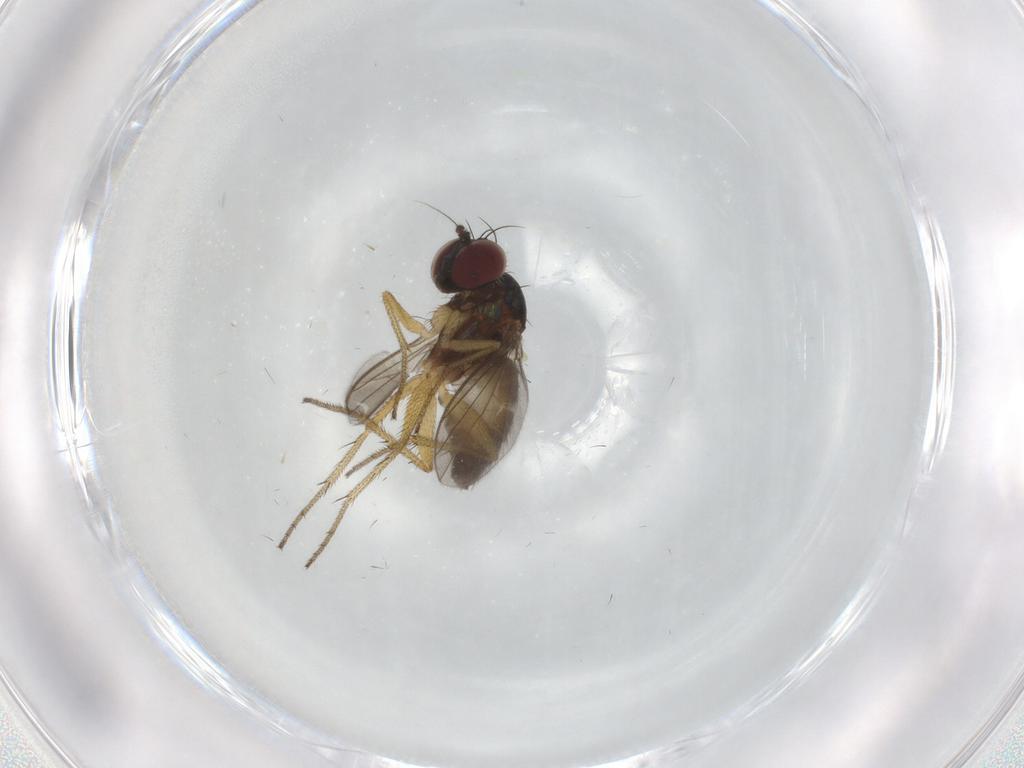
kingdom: Animalia
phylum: Arthropoda
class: Insecta
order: Diptera
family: Dolichopodidae
